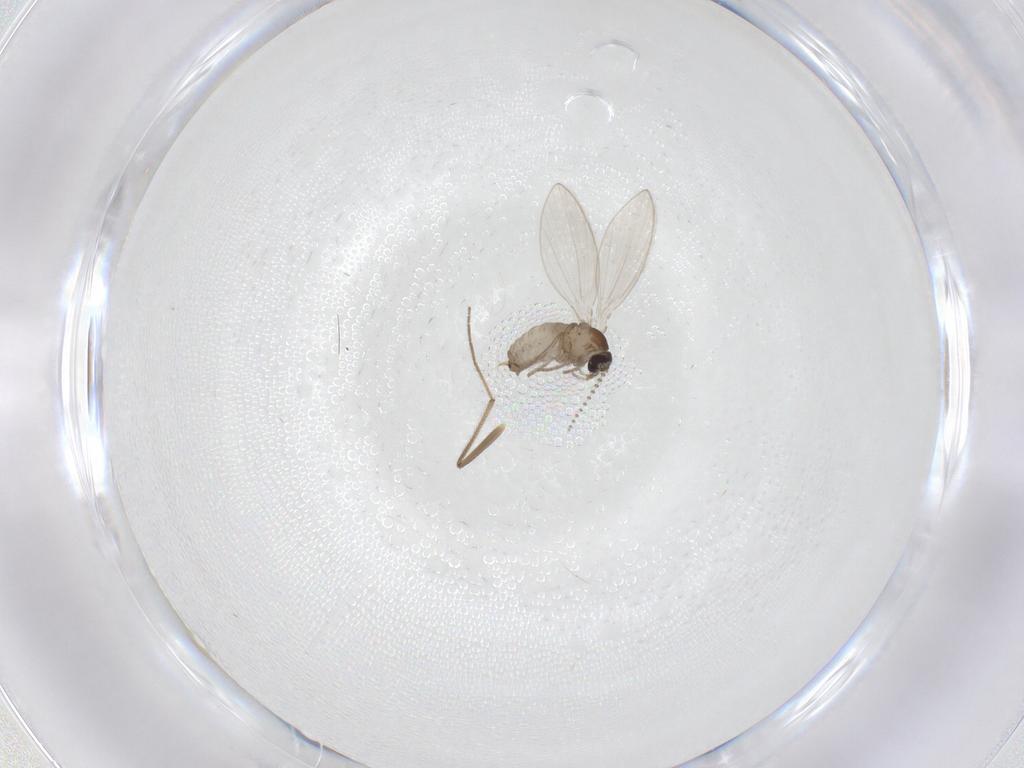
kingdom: Animalia
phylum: Arthropoda
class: Insecta
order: Diptera
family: Psychodidae
